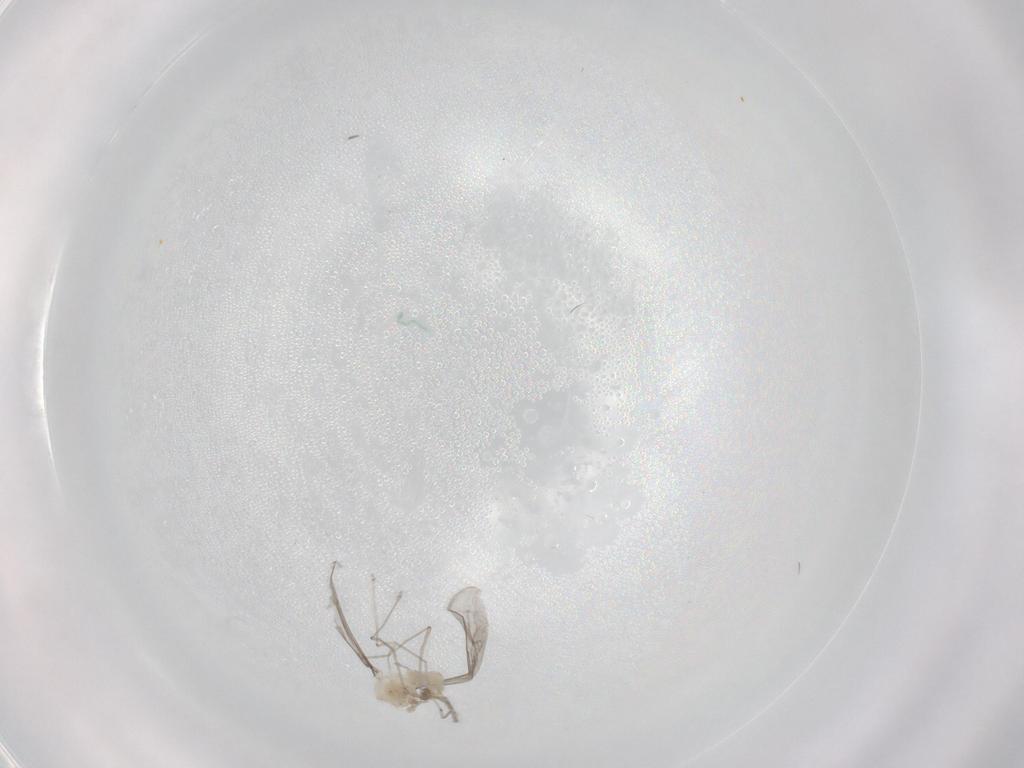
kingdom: Animalia
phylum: Arthropoda
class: Insecta
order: Diptera
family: Cecidomyiidae
